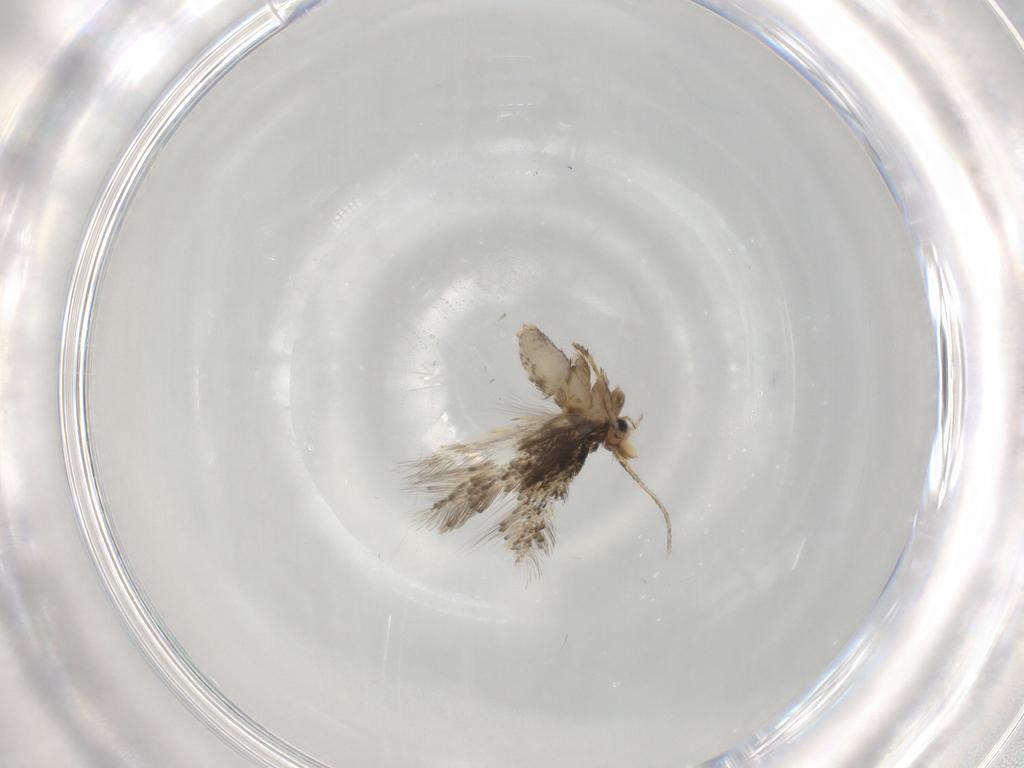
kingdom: Animalia
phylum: Arthropoda
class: Insecta
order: Lepidoptera
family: Nepticulidae
